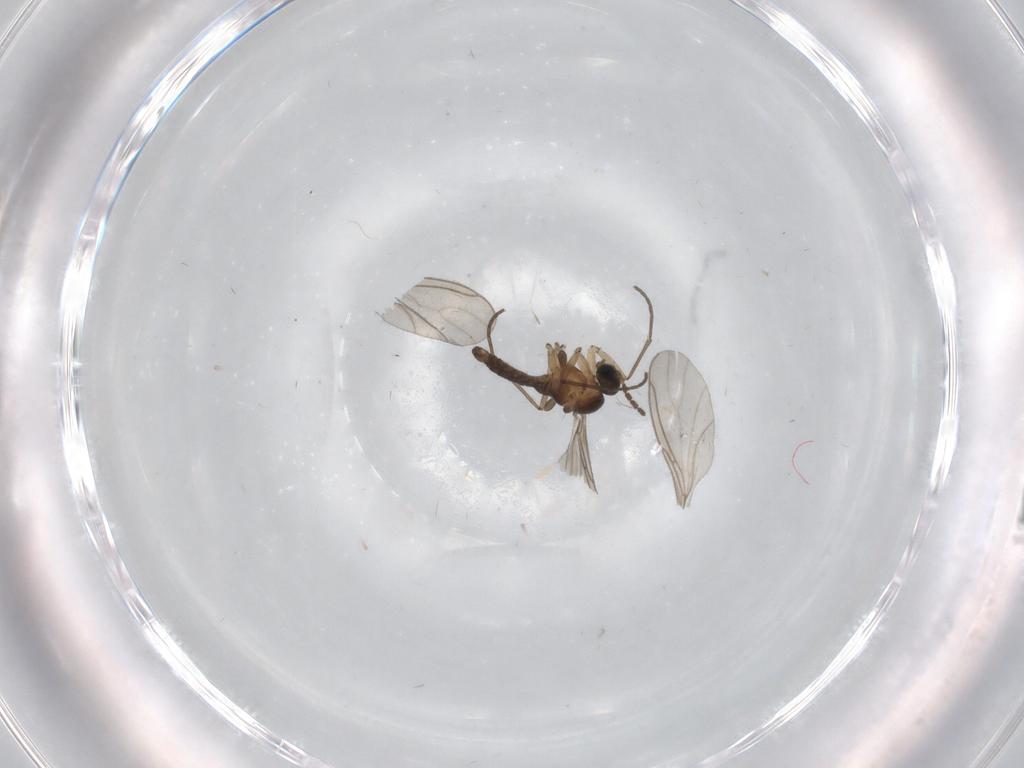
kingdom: Animalia
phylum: Arthropoda
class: Insecta
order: Diptera
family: Sciaridae
